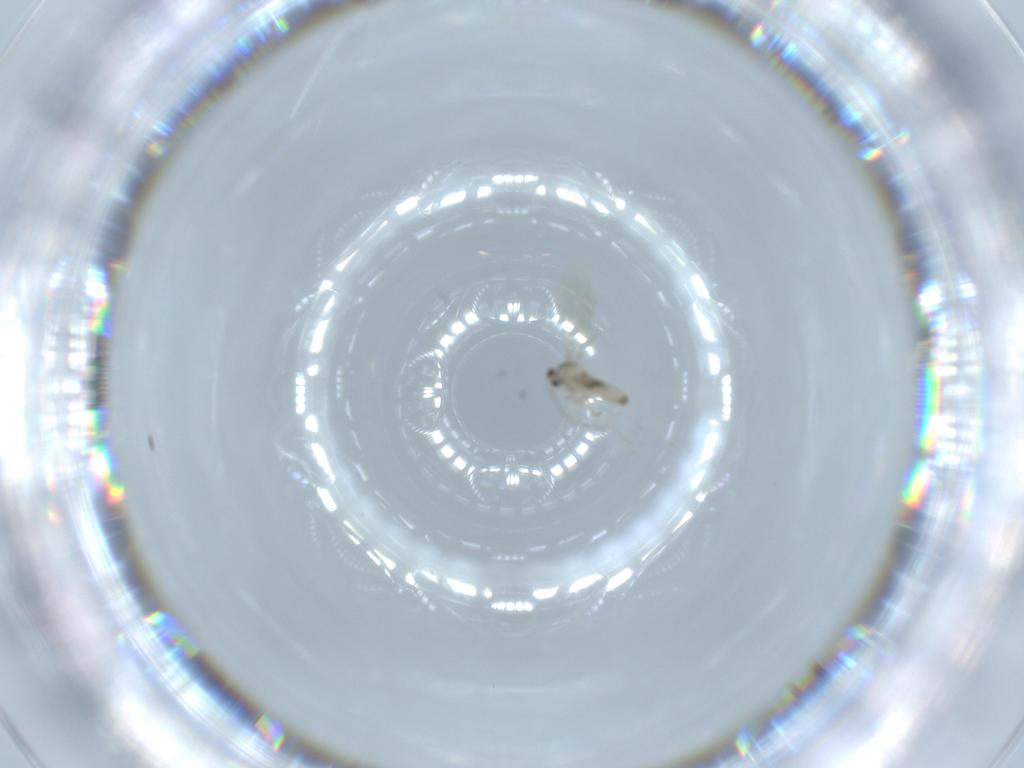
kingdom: Animalia
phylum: Arthropoda
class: Insecta
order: Diptera
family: Cecidomyiidae
